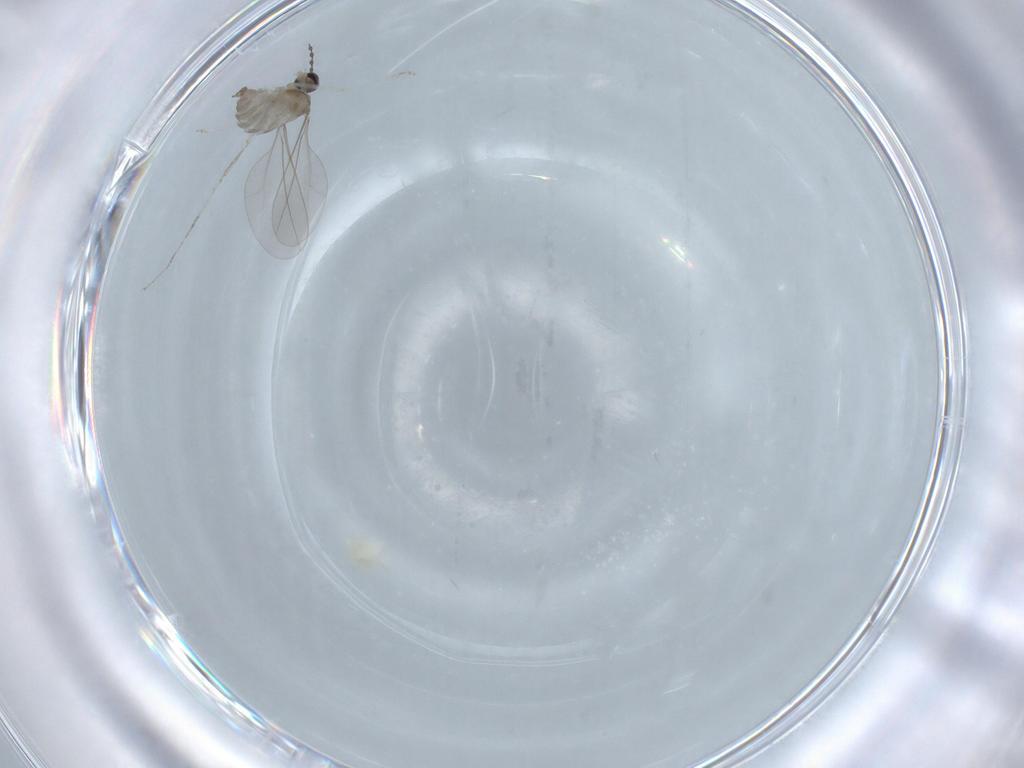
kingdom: Animalia
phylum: Arthropoda
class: Insecta
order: Diptera
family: Cecidomyiidae
